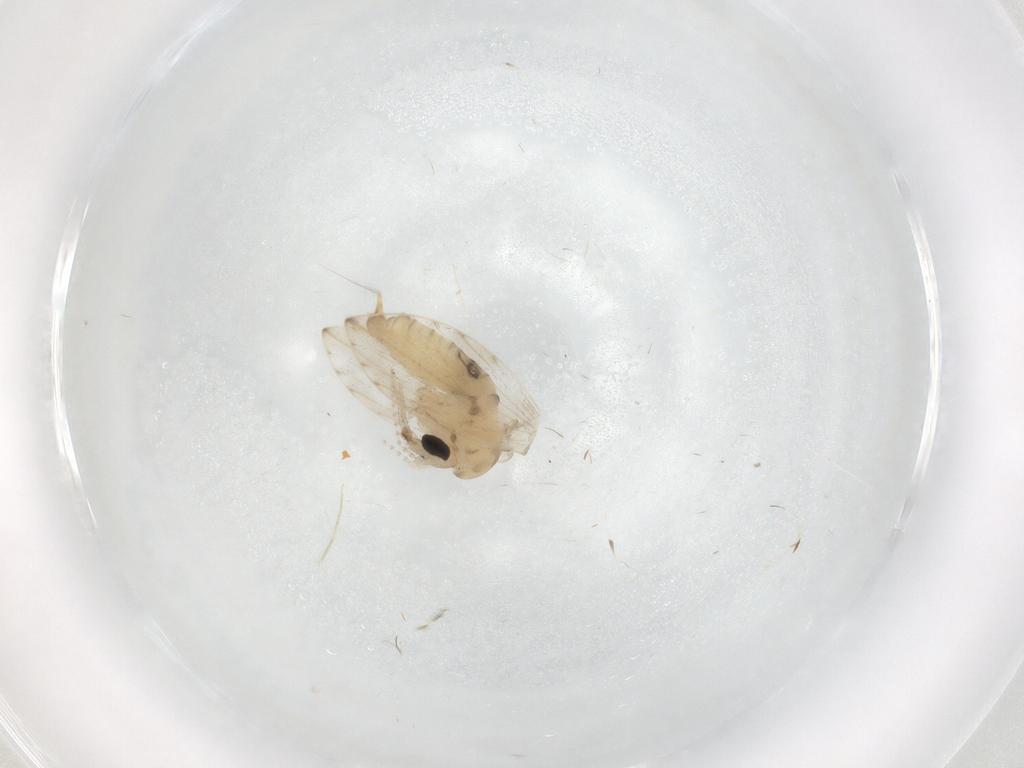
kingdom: Animalia
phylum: Arthropoda
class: Insecta
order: Diptera
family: Psychodidae
